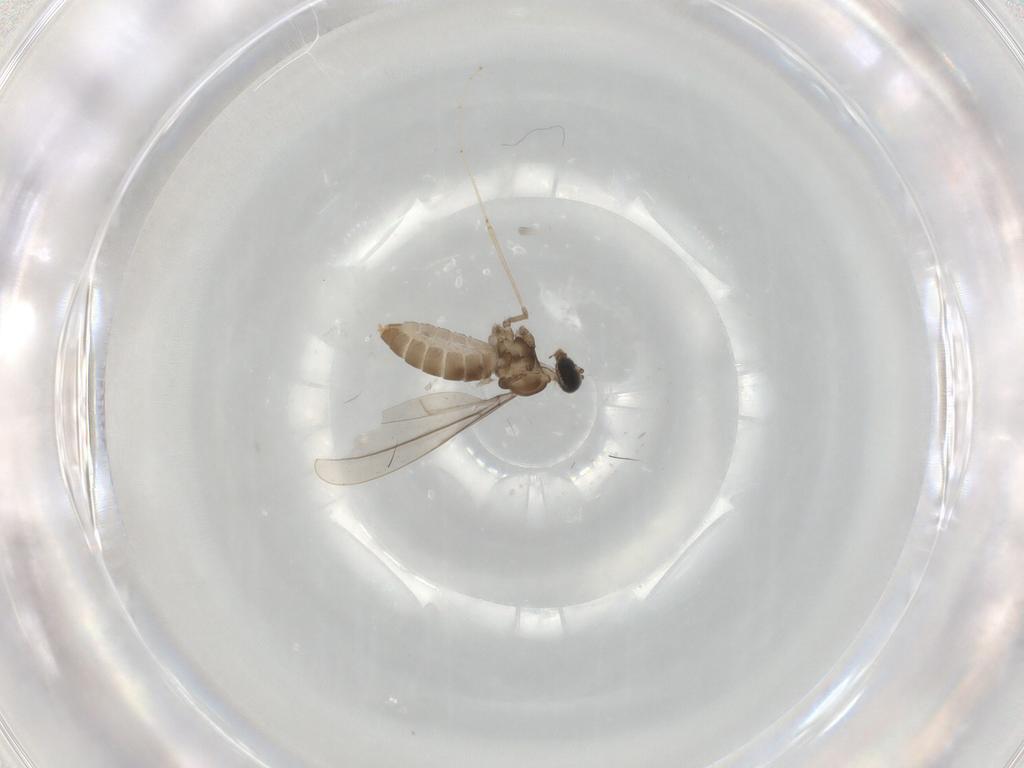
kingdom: Animalia
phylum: Arthropoda
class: Insecta
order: Diptera
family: Cecidomyiidae
